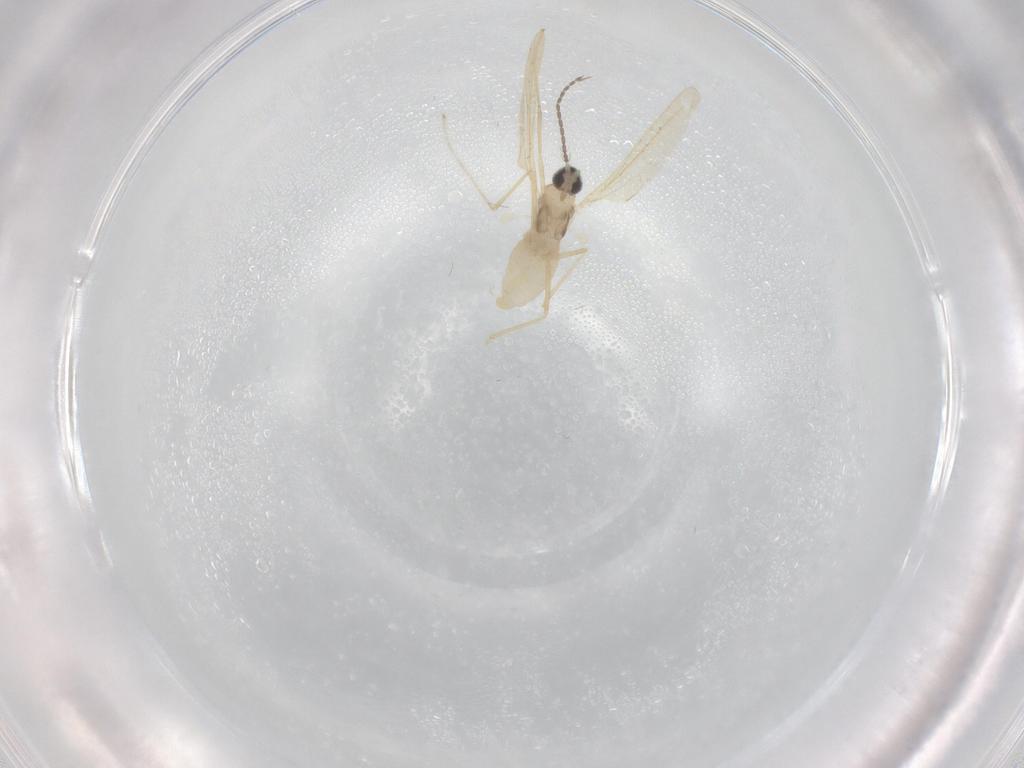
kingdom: Animalia
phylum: Arthropoda
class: Insecta
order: Diptera
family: Cecidomyiidae
